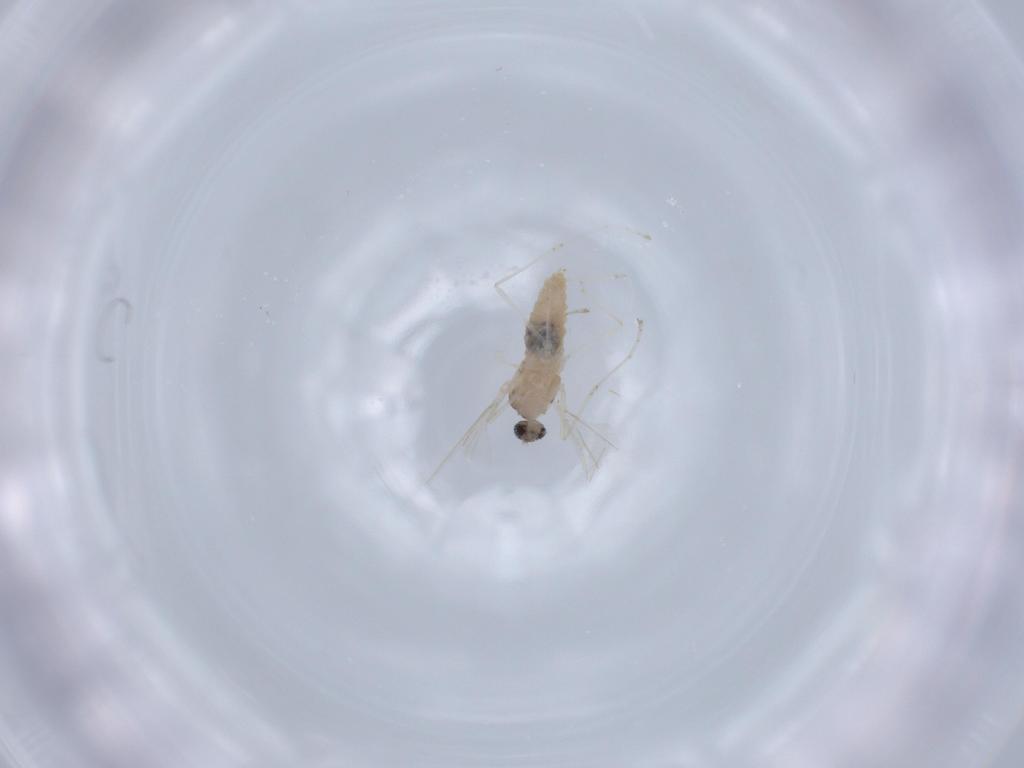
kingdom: Animalia
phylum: Arthropoda
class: Insecta
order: Diptera
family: Cecidomyiidae
